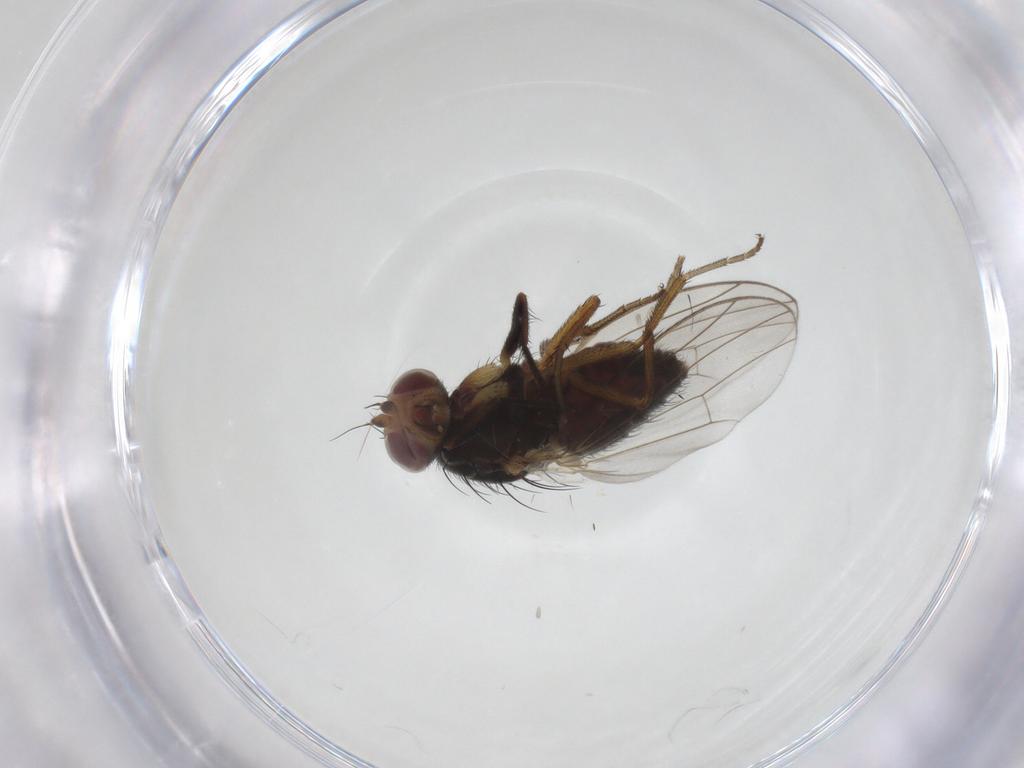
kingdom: Animalia
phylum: Arthropoda
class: Insecta
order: Diptera
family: Heleomyzidae
